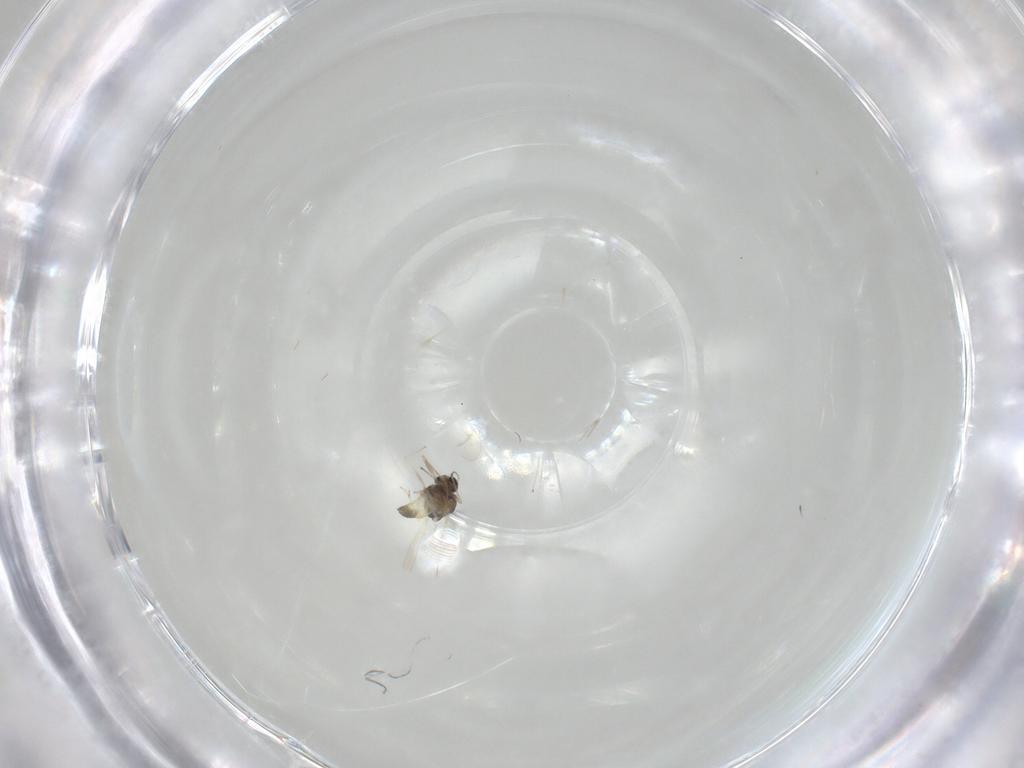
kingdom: Animalia
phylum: Arthropoda
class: Insecta
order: Diptera
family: Chironomidae
